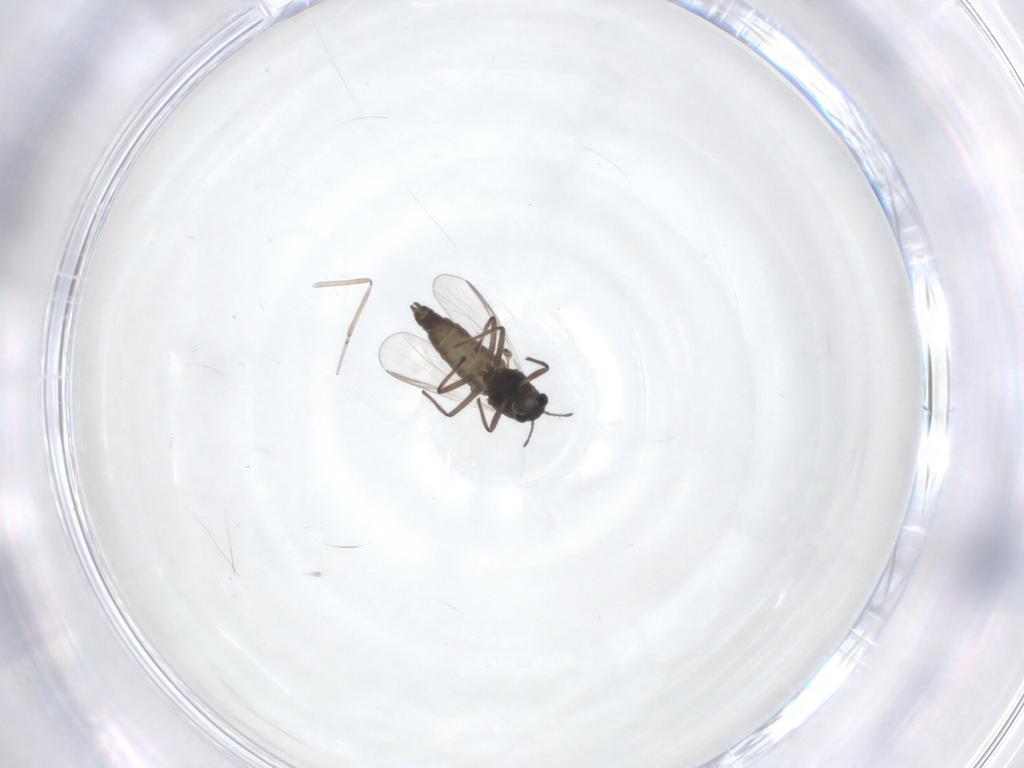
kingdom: Animalia
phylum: Arthropoda
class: Insecta
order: Diptera
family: Chironomidae
